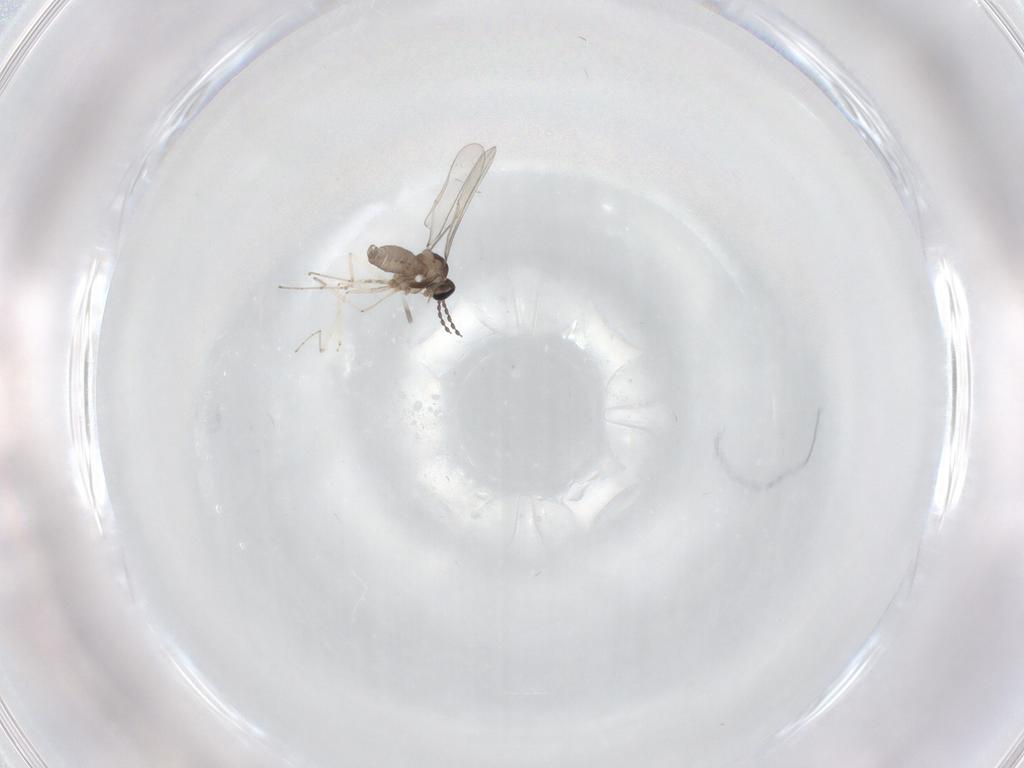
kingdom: Animalia
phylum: Arthropoda
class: Insecta
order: Diptera
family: Cecidomyiidae
